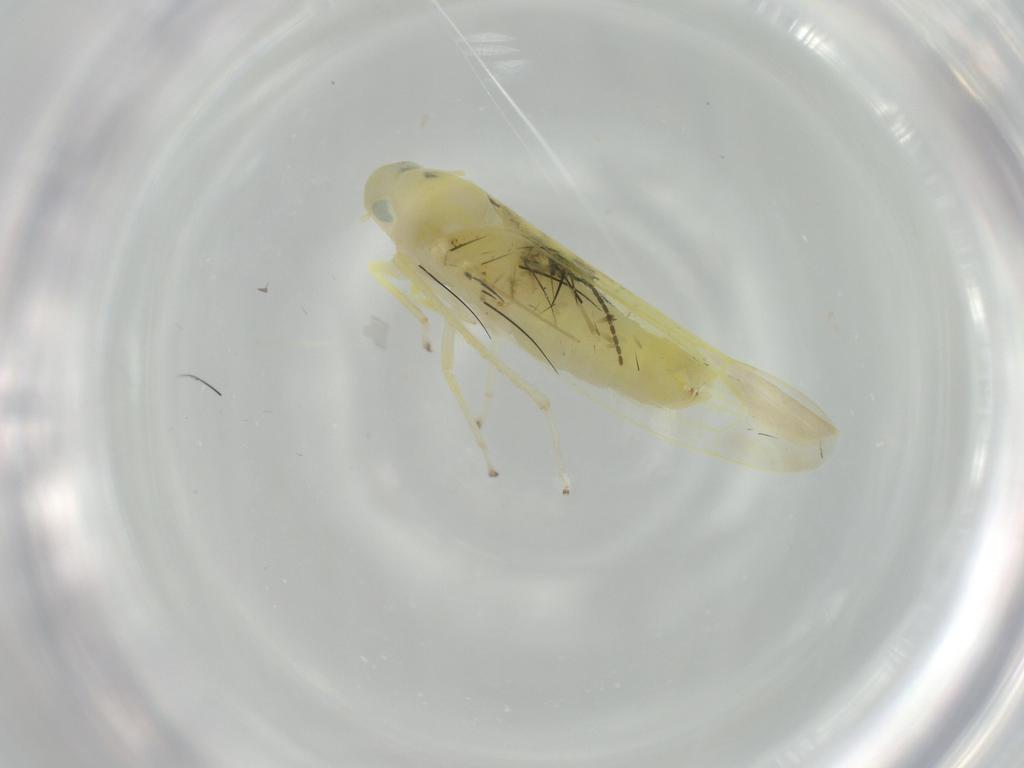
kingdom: Animalia
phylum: Arthropoda
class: Insecta
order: Hemiptera
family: Cicadellidae
